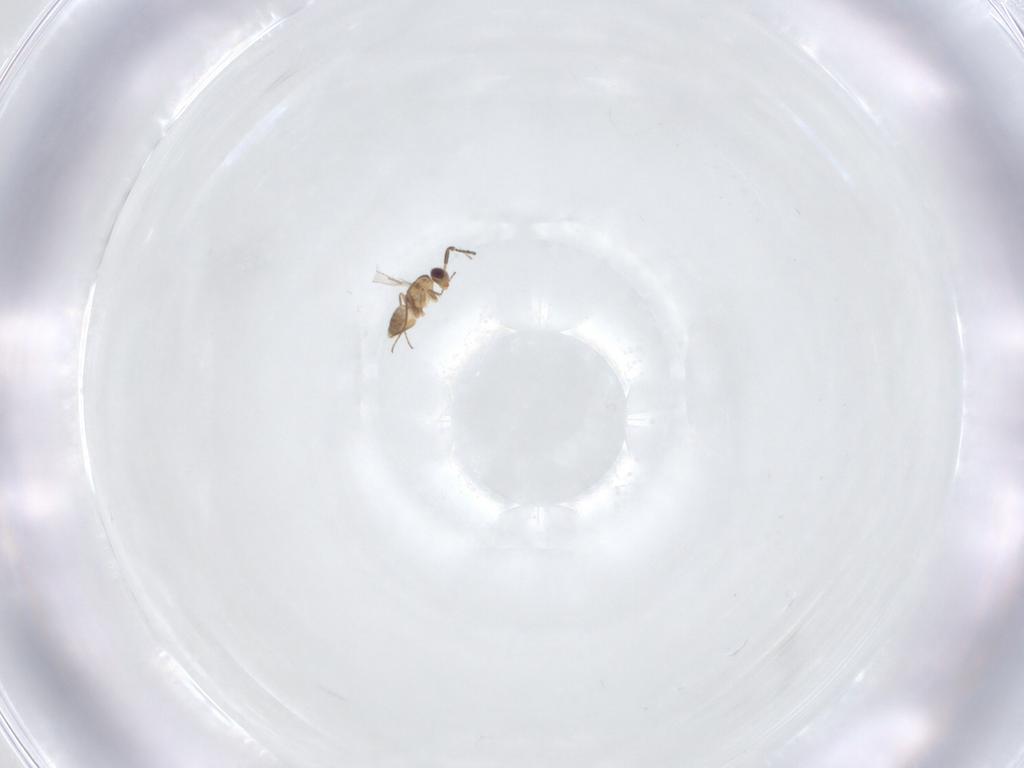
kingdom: Animalia
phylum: Arthropoda
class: Insecta
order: Hymenoptera
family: Mymaridae
